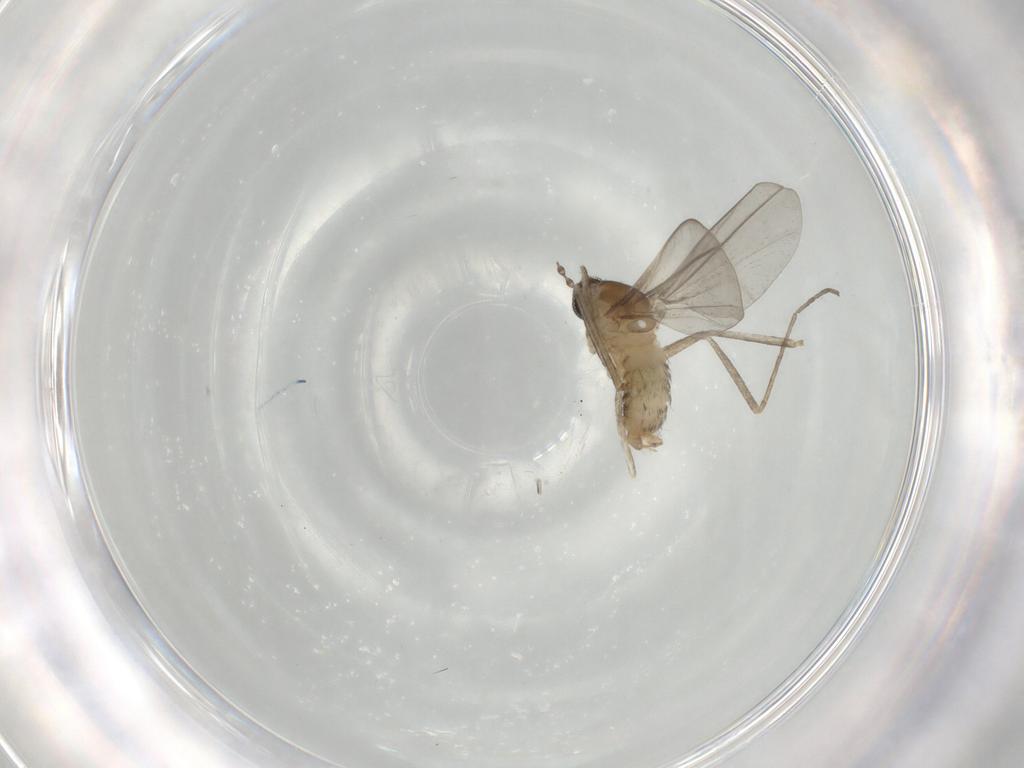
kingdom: Animalia
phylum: Arthropoda
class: Insecta
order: Diptera
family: Cecidomyiidae
